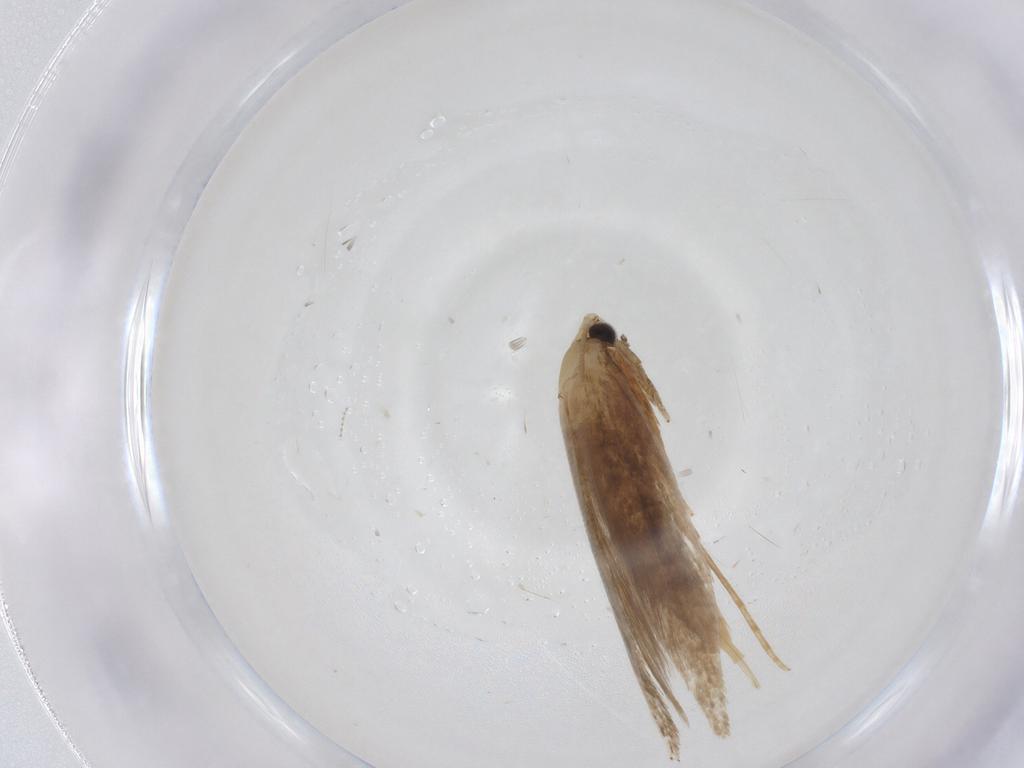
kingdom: Animalia
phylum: Arthropoda
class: Insecta
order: Lepidoptera
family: Tineidae
